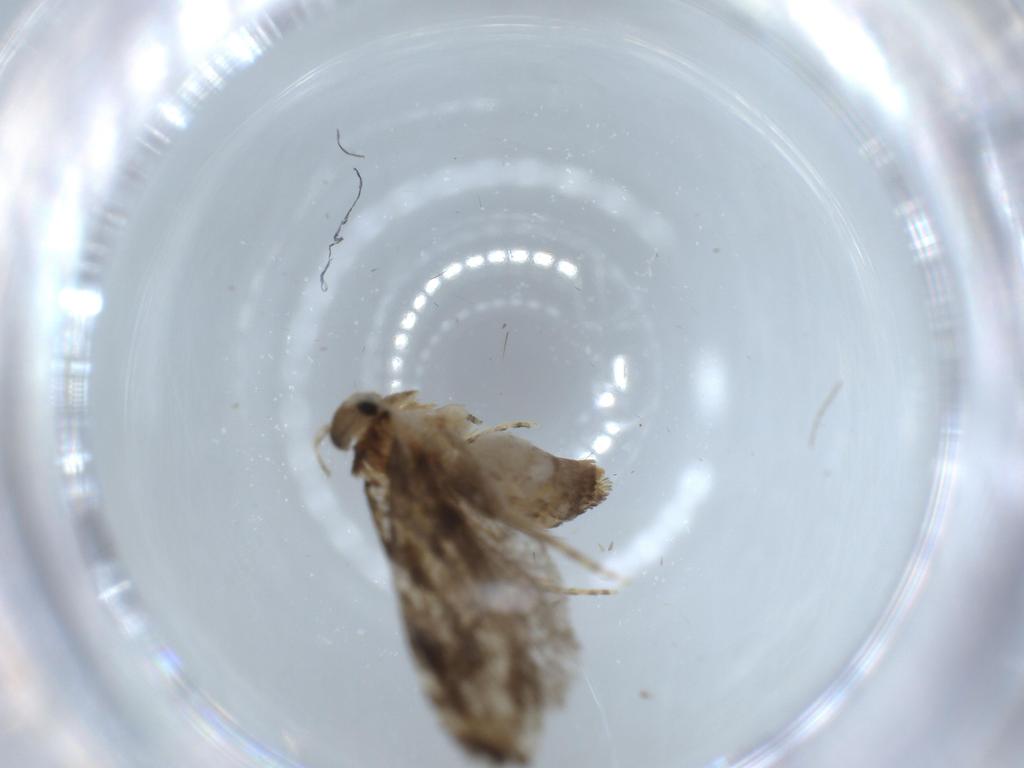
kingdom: Animalia
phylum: Arthropoda
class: Insecta
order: Lepidoptera
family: Tineidae
